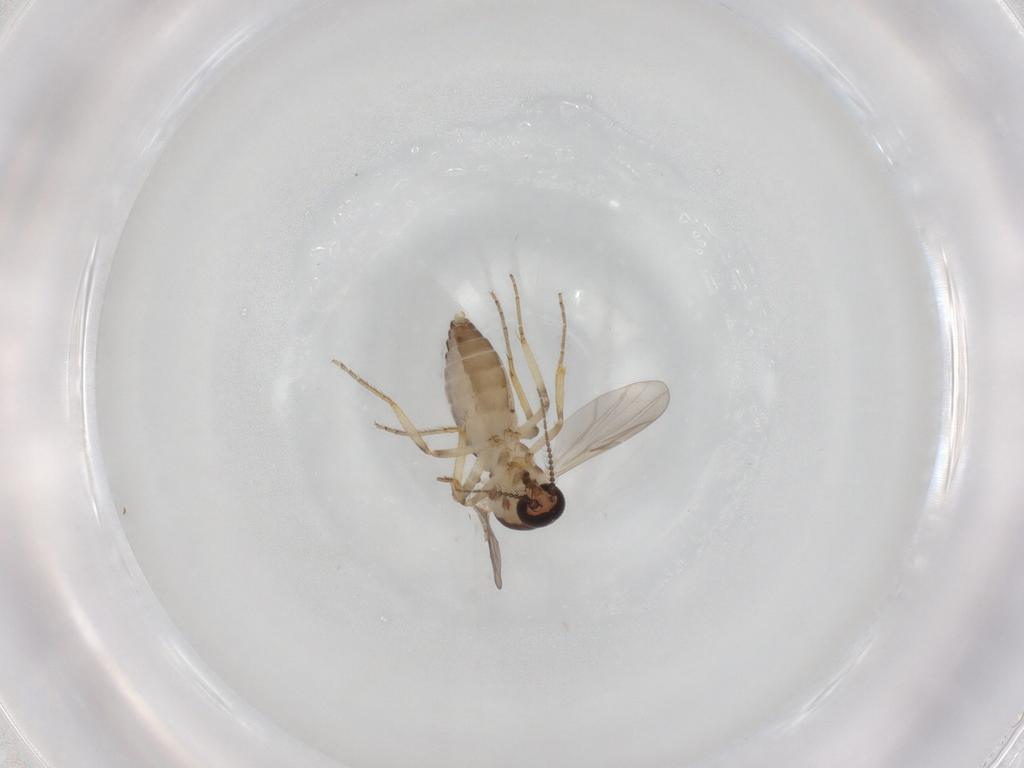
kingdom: Animalia
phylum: Arthropoda
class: Insecta
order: Diptera
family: Ceratopogonidae
